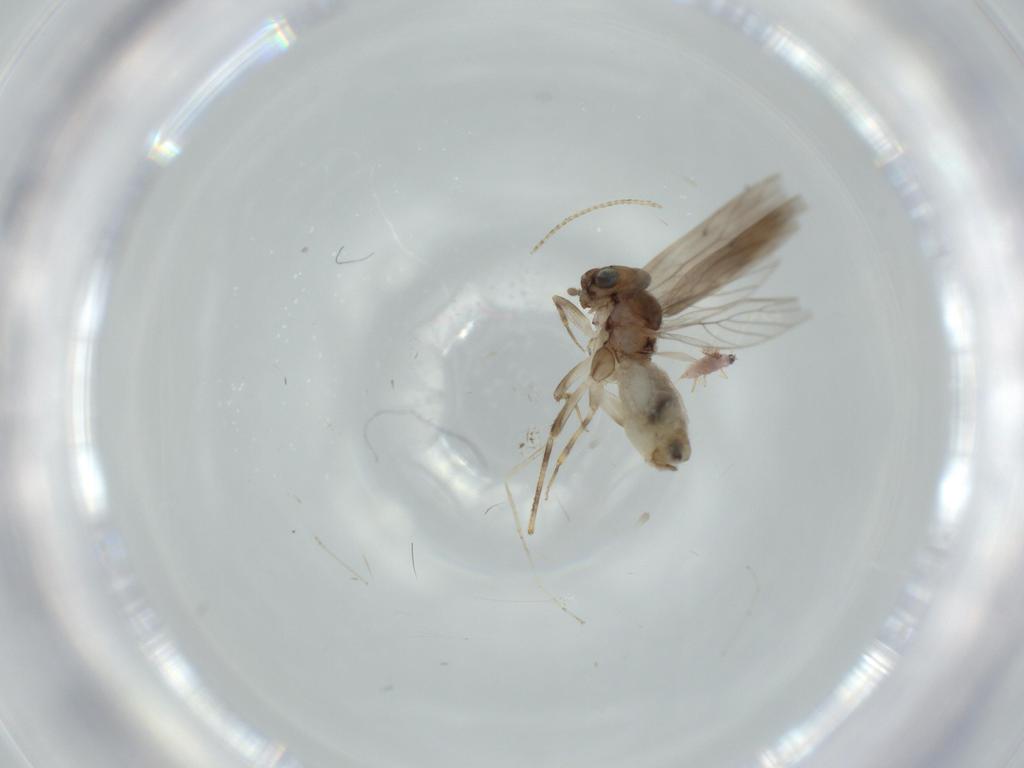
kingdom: Animalia
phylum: Arthropoda
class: Insecta
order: Psocodea
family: Lepidopsocidae
